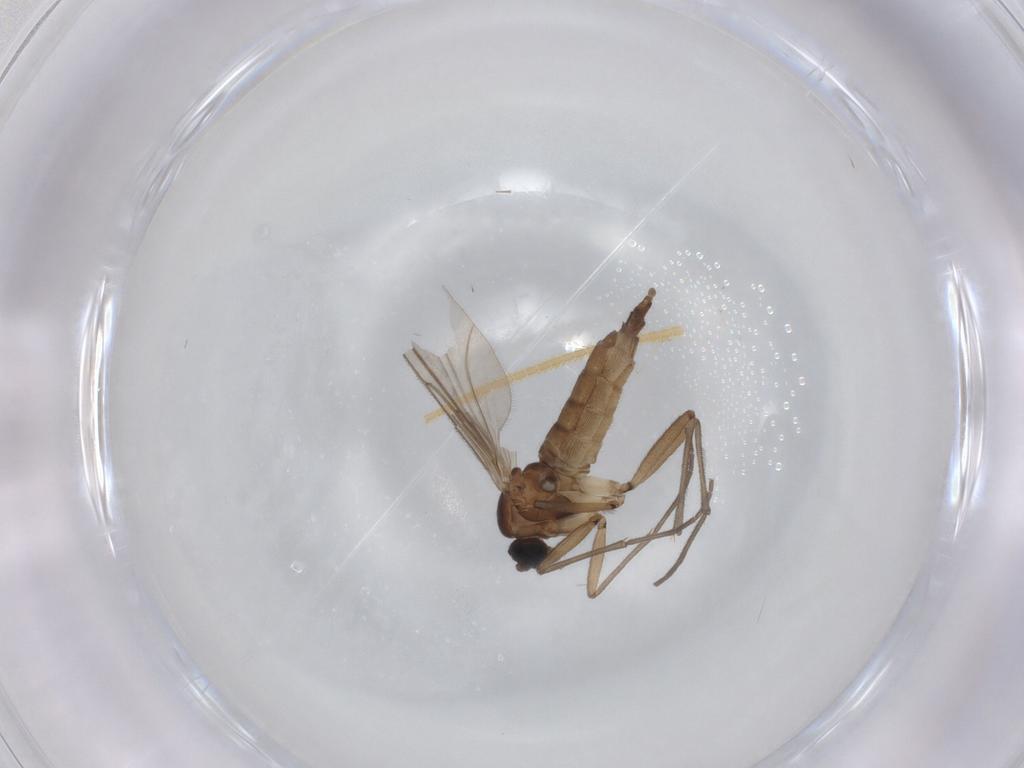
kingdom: Animalia
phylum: Arthropoda
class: Insecta
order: Diptera
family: Sciaridae
